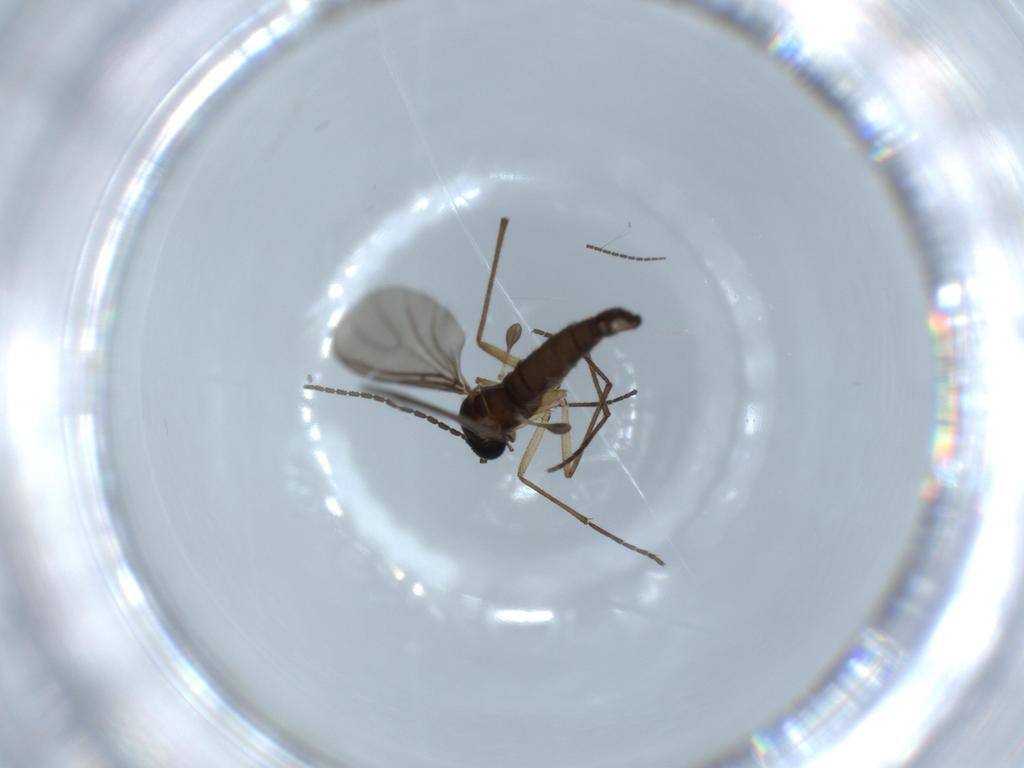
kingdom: Animalia
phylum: Arthropoda
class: Insecta
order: Diptera
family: Sciaridae
